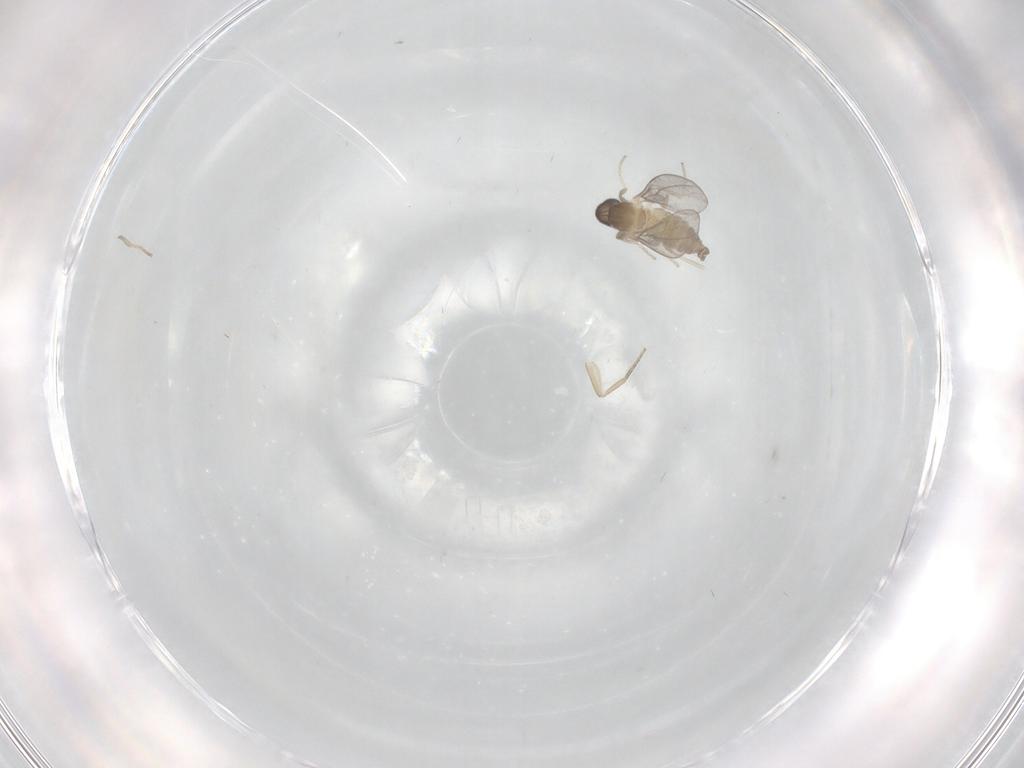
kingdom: Animalia
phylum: Arthropoda
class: Insecta
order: Diptera
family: Phoridae
